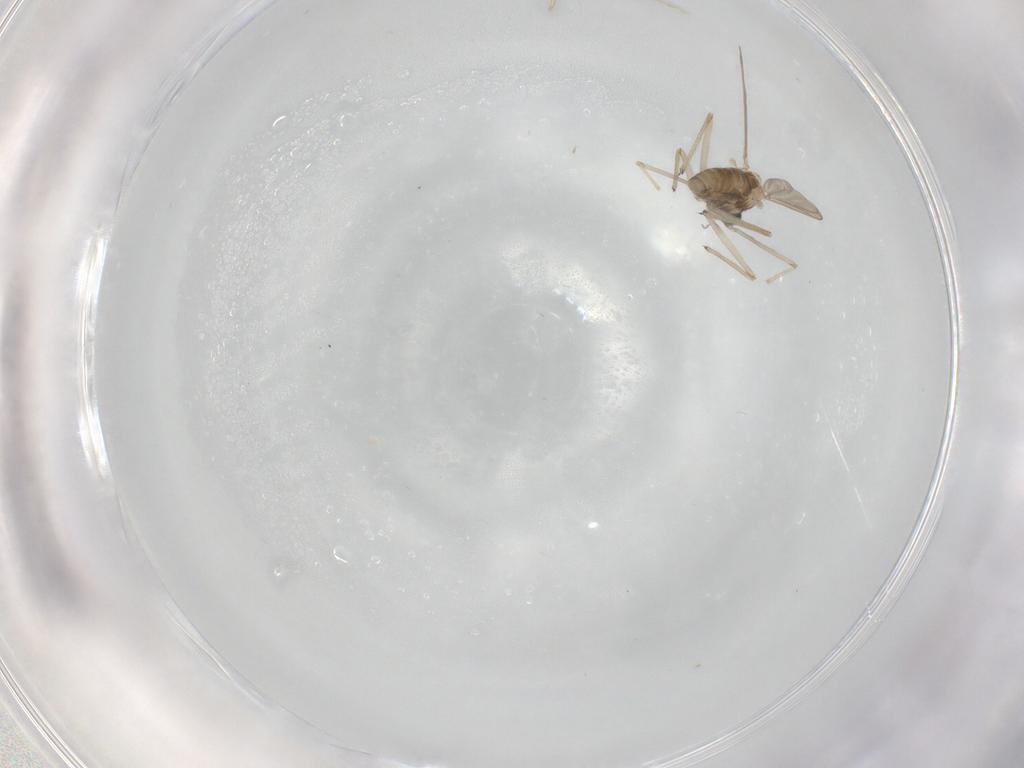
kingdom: Animalia
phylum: Arthropoda
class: Insecta
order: Diptera
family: Chironomidae
